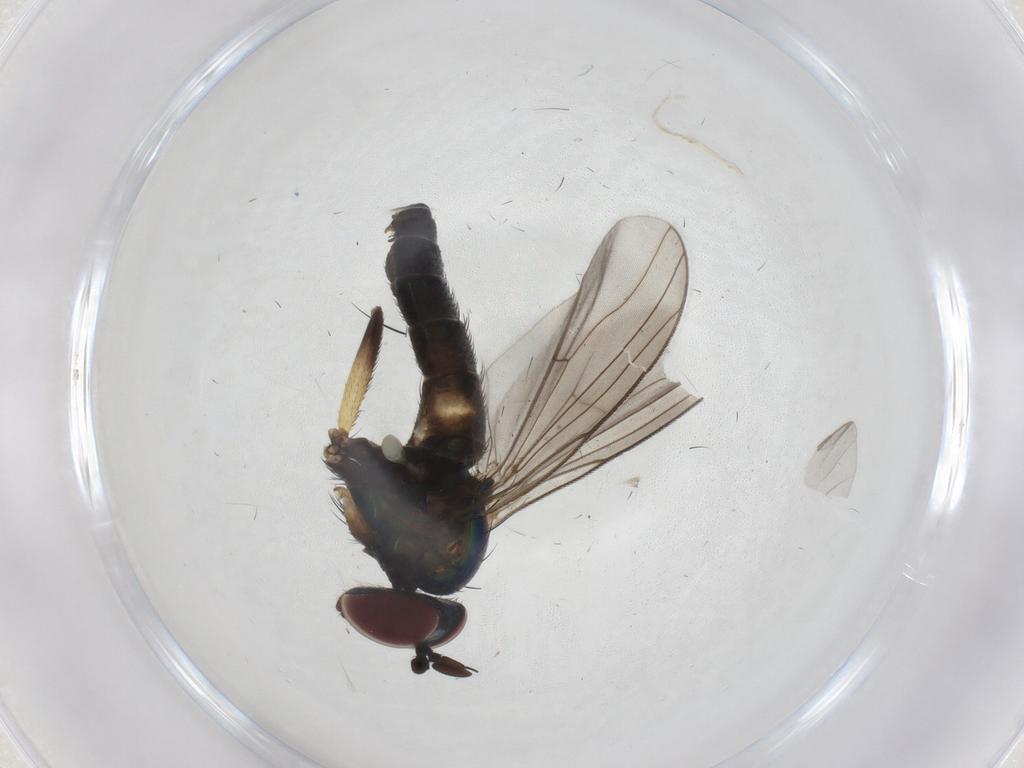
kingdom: Animalia
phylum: Arthropoda
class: Insecta
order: Diptera
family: Dolichopodidae
